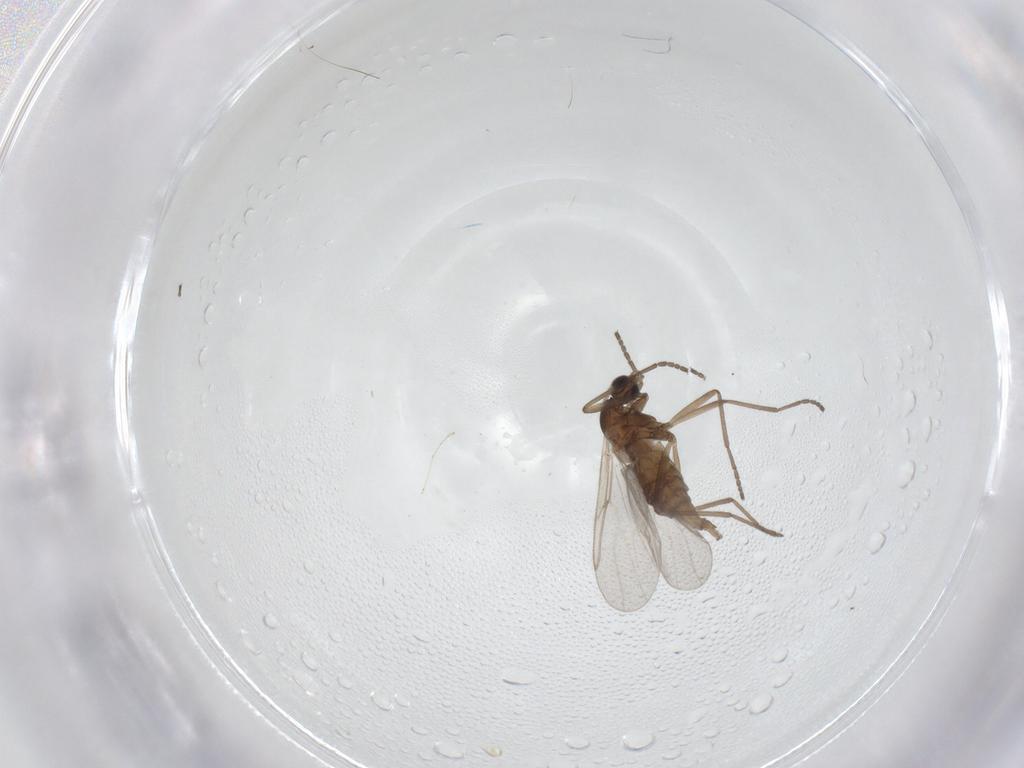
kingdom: Animalia
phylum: Arthropoda
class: Insecta
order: Diptera
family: Cecidomyiidae
